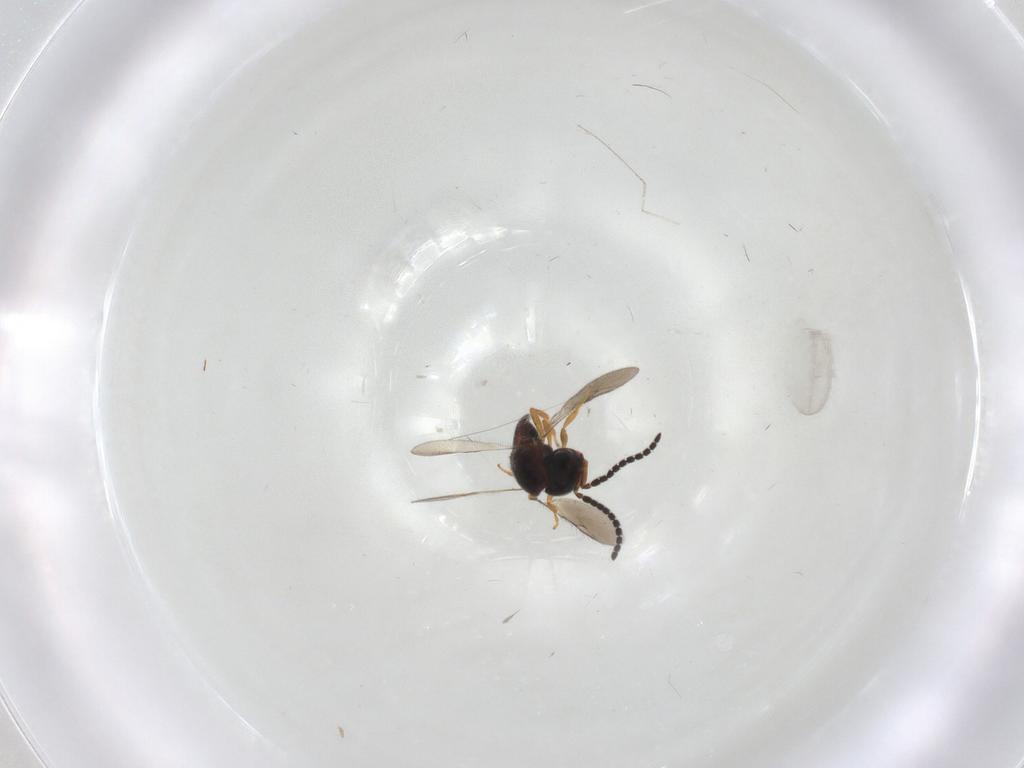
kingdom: Animalia
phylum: Arthropoda
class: Insecta
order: Hymenoptera
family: Scelionidae
